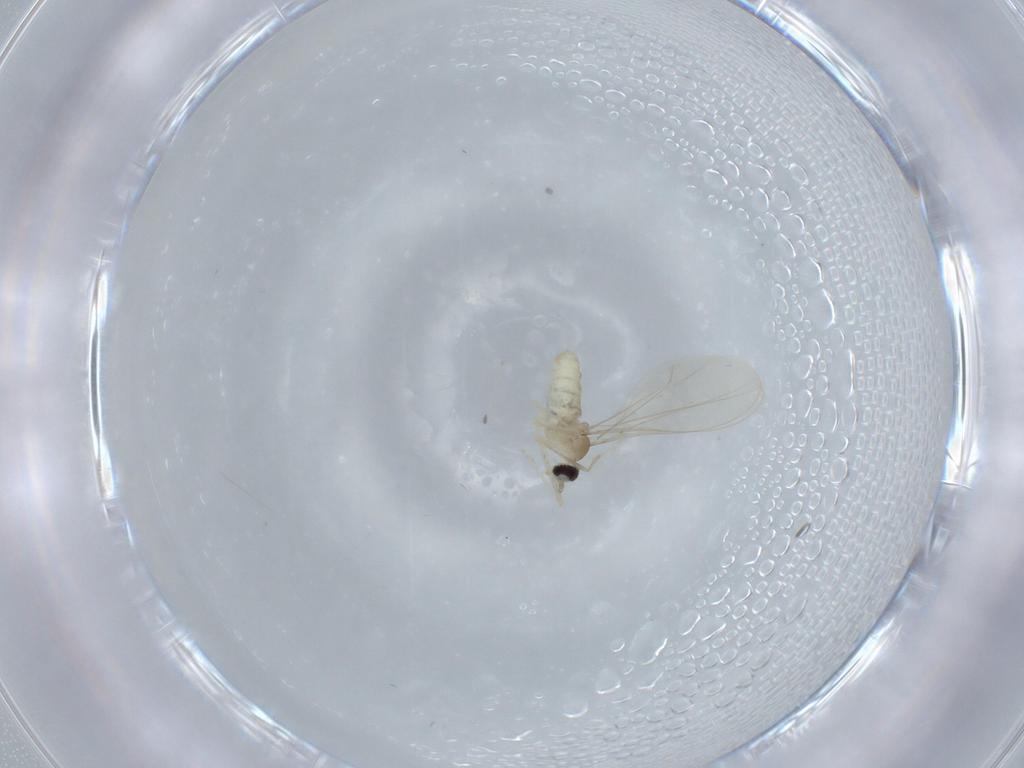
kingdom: Animalia
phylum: Arthropoda
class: Insecta
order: Diptera
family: Cecidomyiidae
